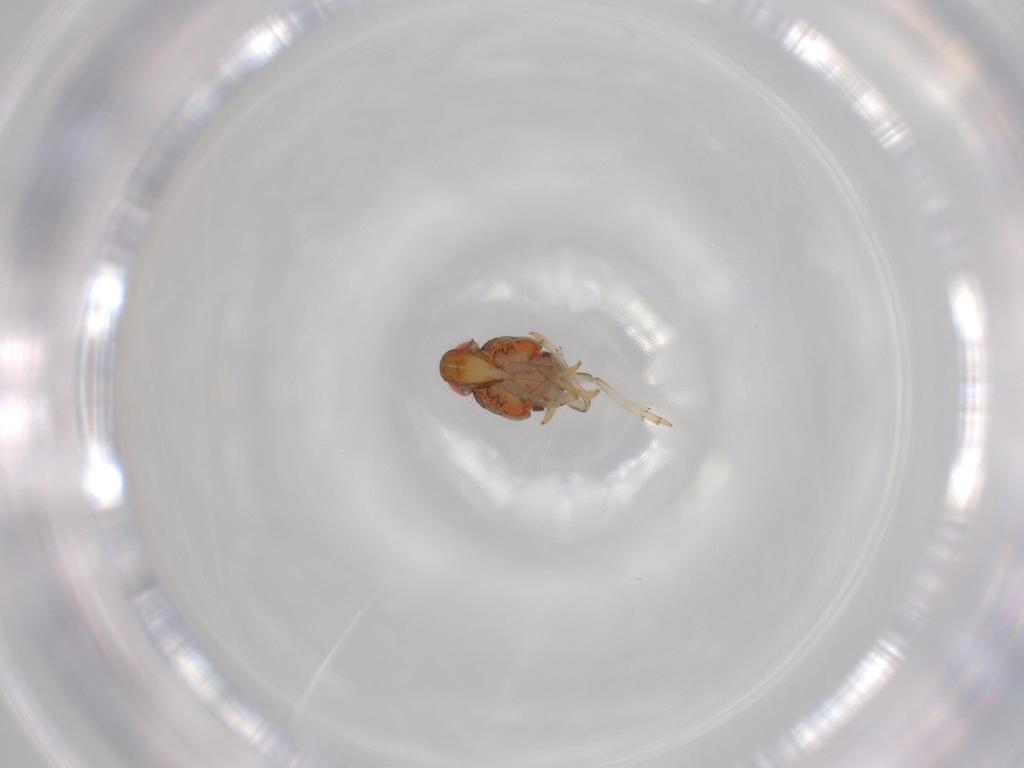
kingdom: Animalia
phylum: Arthropoda
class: Insecta
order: Hemiptera
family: Issidae
